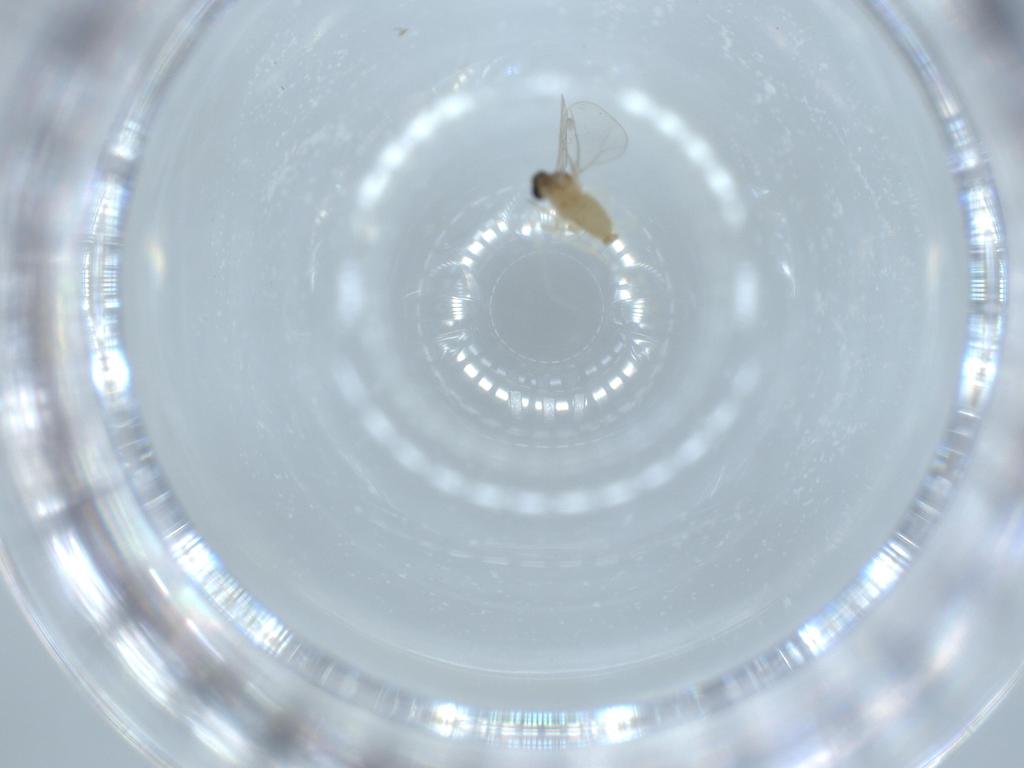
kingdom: Animalia
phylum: Arthropoda
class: Insecta
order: Diptera
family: Cecidomyiidae
